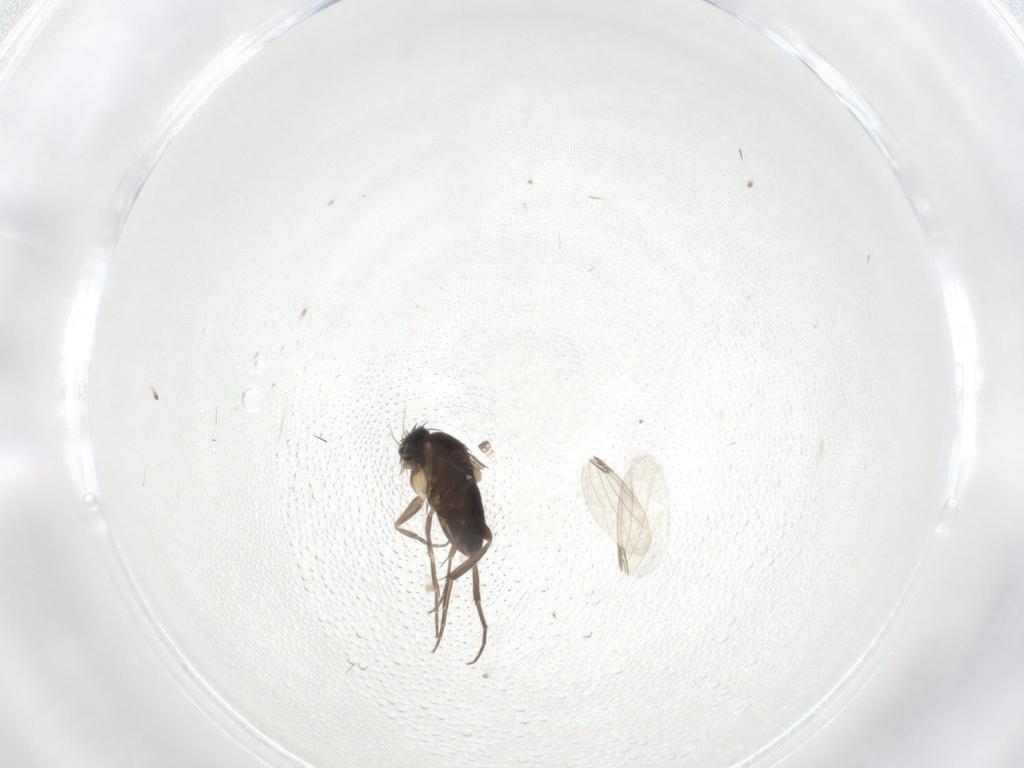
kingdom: Animalia
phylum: Arthropoda
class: Insecta
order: Diptera
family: Phoridae
